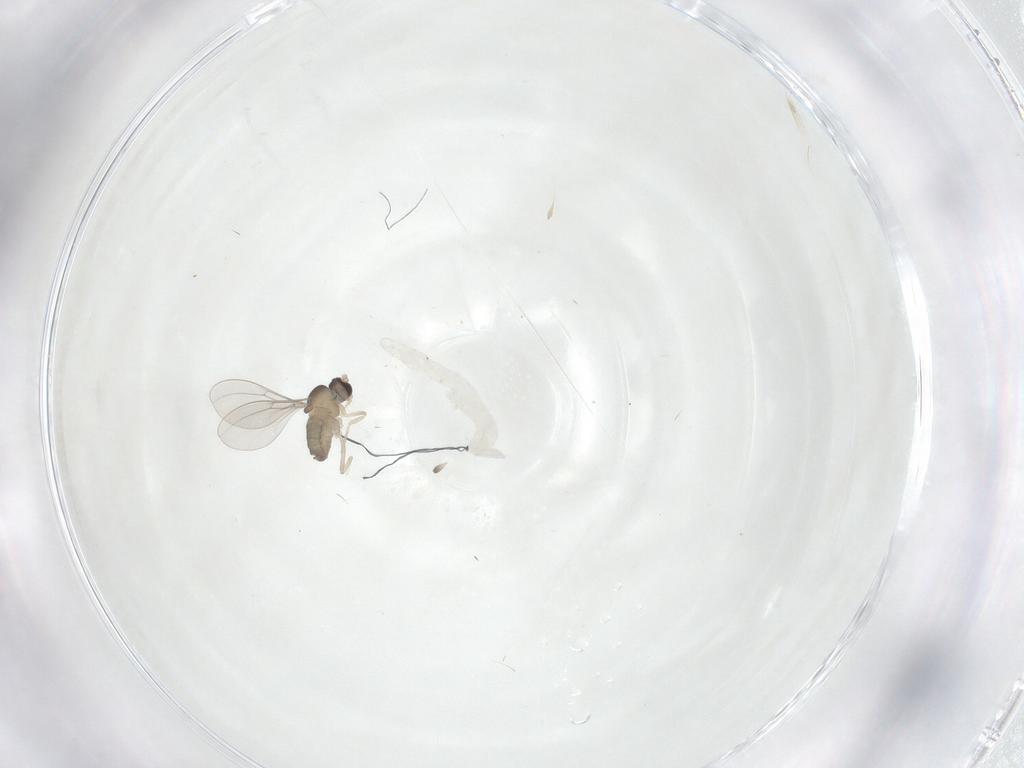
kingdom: Animalia
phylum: Arthropoda
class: Insecta
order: Diptera
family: Cecidomyiidae
